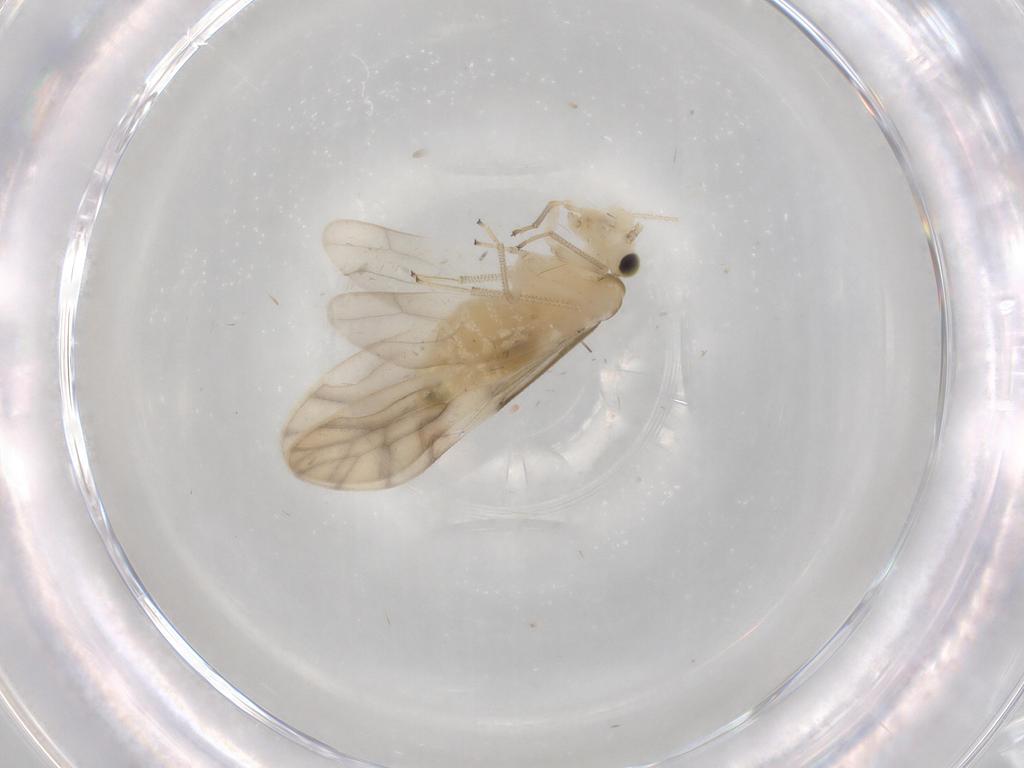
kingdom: Animalia
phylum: Arthropoda
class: Insecta
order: Psocodea
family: Caeciliusidae
